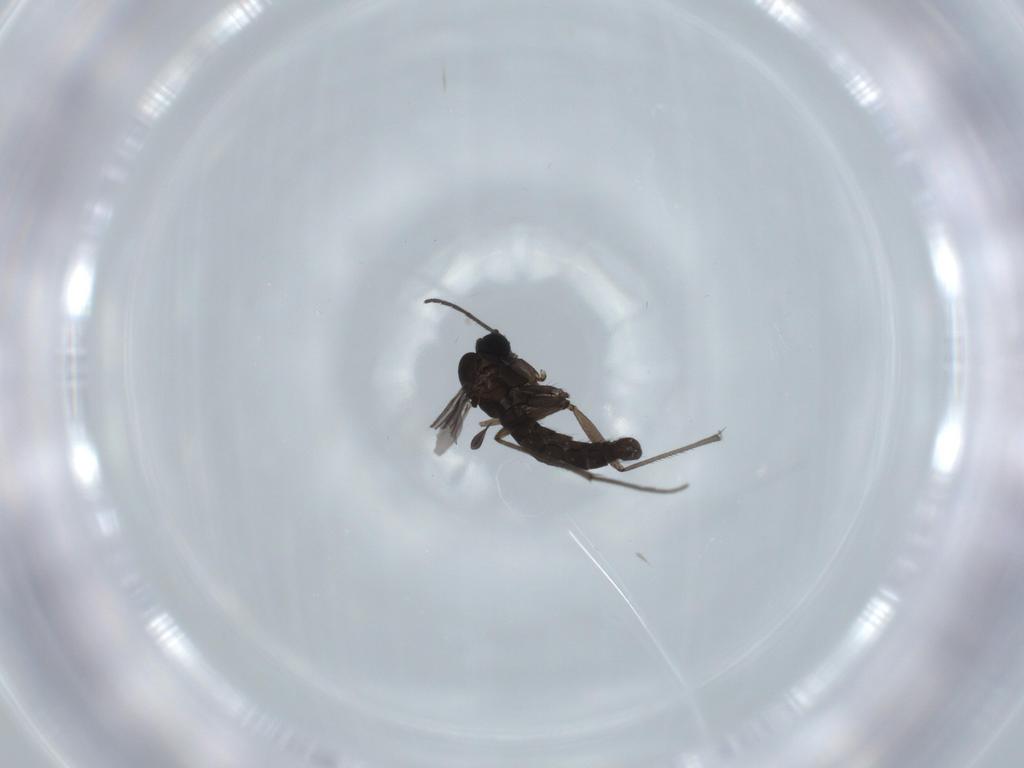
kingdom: Animalia
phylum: Arthropoda
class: Insecta
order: Diptera
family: Sciaridae
